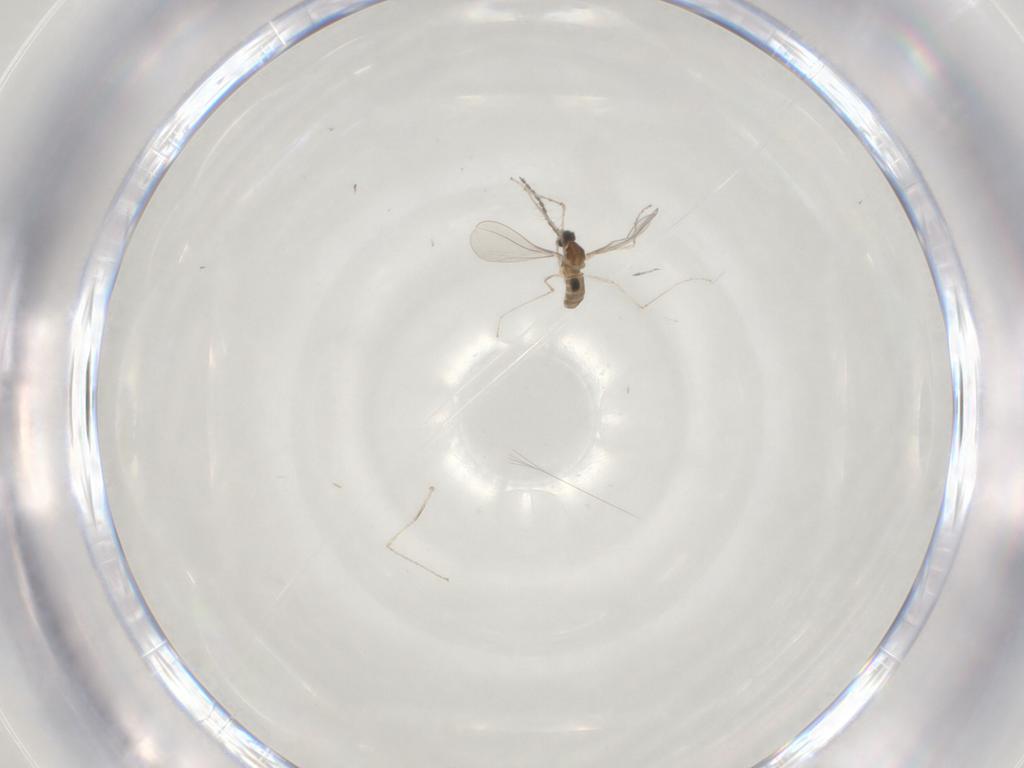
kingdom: Animalia
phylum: Arthropoda
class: Insecta
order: Diptera
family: Cecidomyiidae
